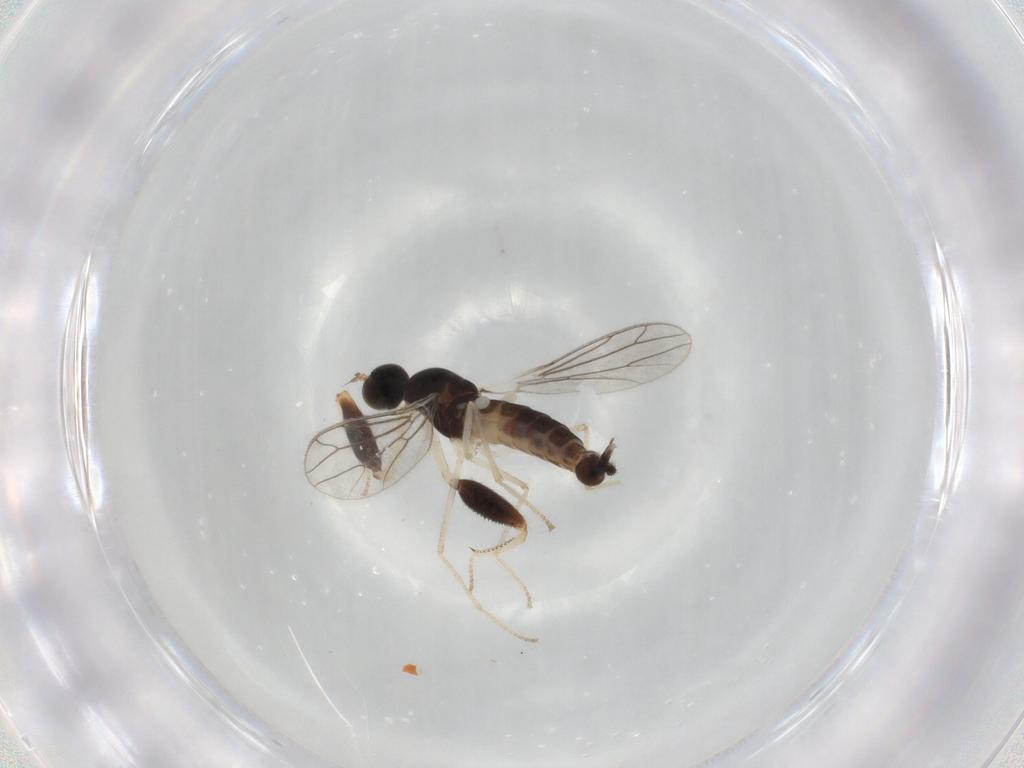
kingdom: Animalia
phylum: Arthropoda
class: Insecta
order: Diptera
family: Empididae
